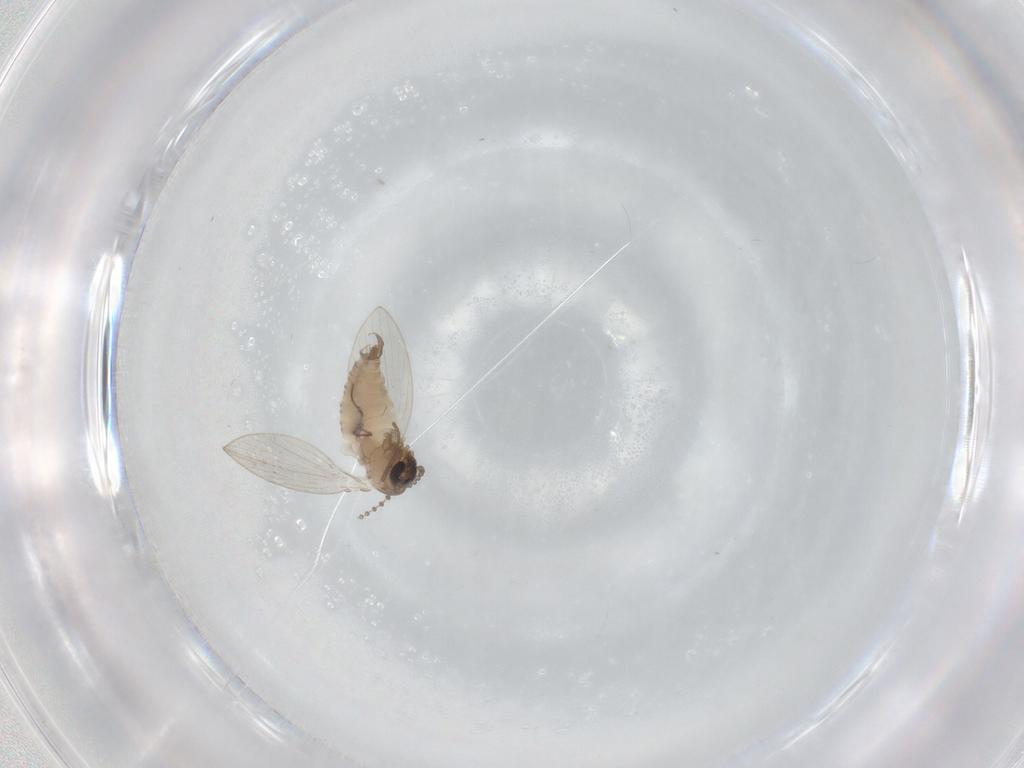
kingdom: Animalia
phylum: Arthropoda
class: Insecta
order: Diptera
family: Psychodidae
